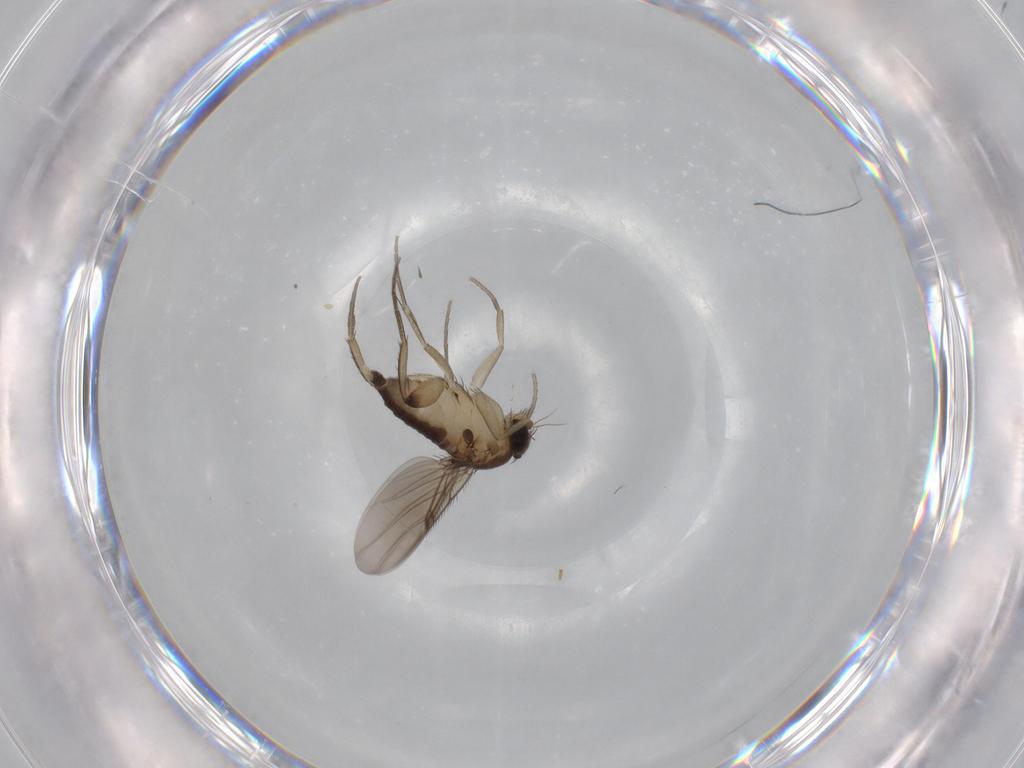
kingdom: Animalia
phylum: Arthropoda
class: Insecta
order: Diptera
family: Phoridae
